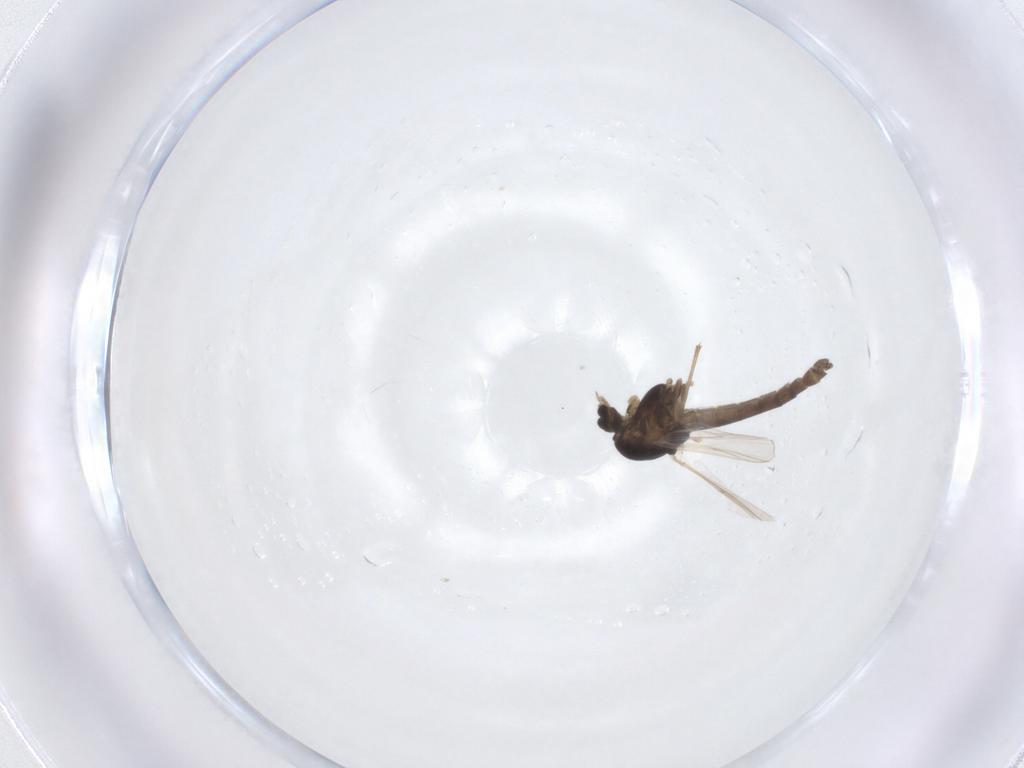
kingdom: Animalia
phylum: Arthropoda
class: Insecta
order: Diptera
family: Chironomidae
